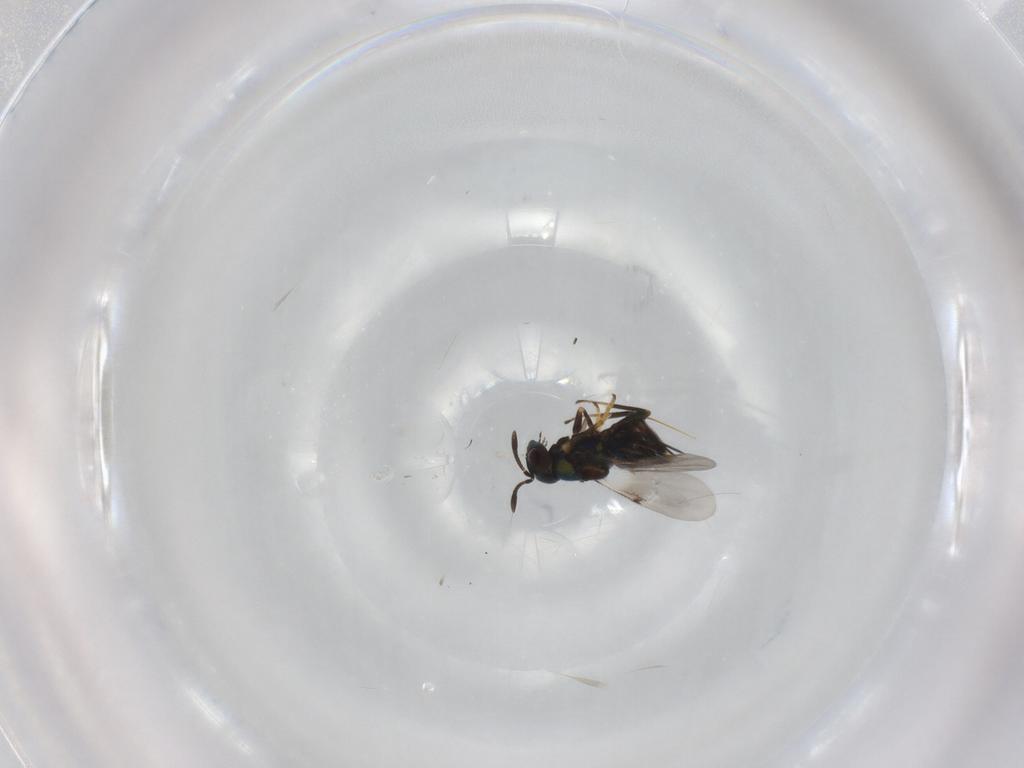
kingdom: Animalia
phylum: Arthropoda
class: Insecta
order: Hymenoptera
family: Encyrtidae
